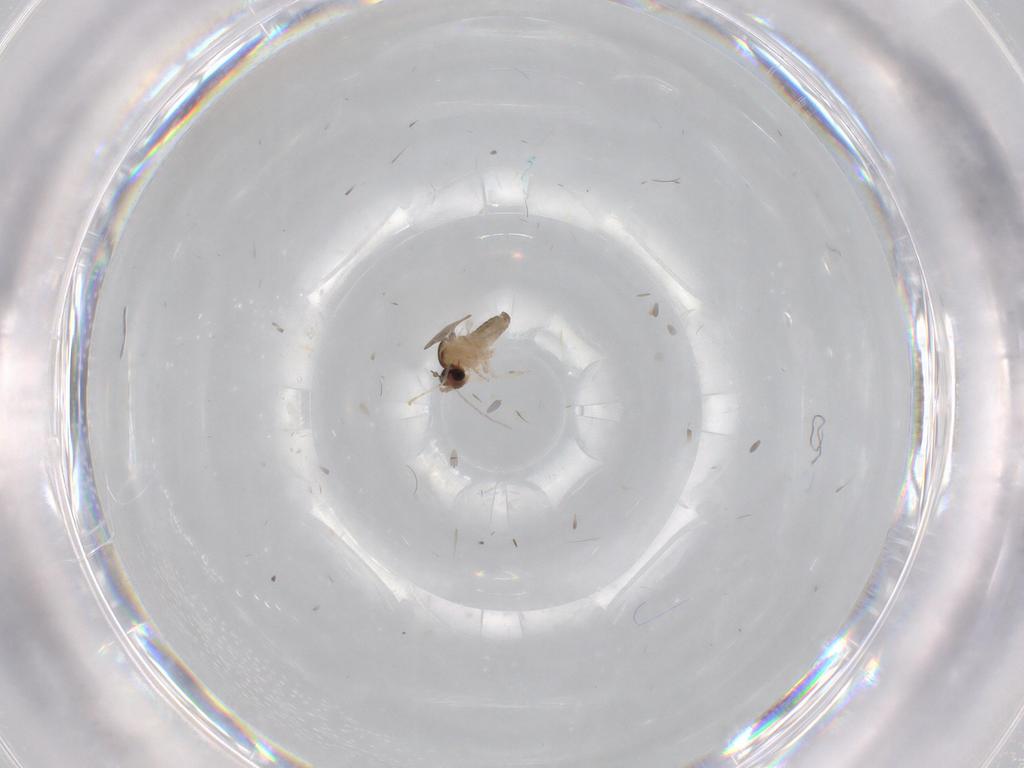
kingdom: Animalia
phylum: Arthropoda
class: Insecta
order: Diptera
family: Cecidomyiidae
